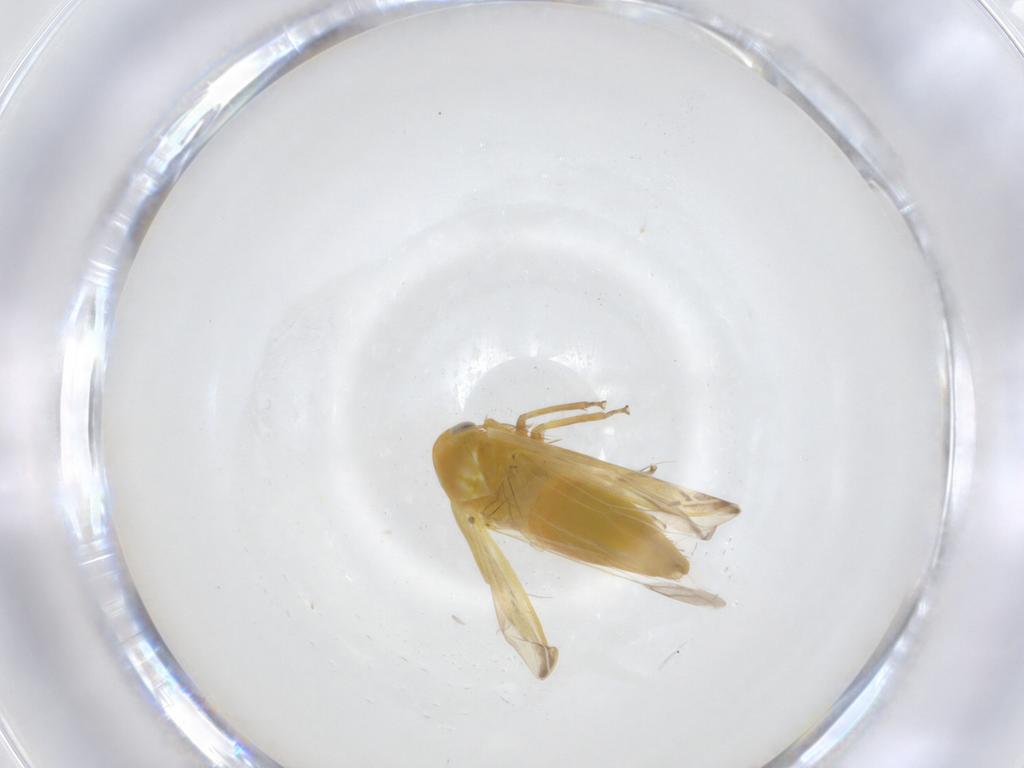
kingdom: Animalia
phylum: Arthropoda
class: Insecta
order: Hemiptera
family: Cicadellidae
